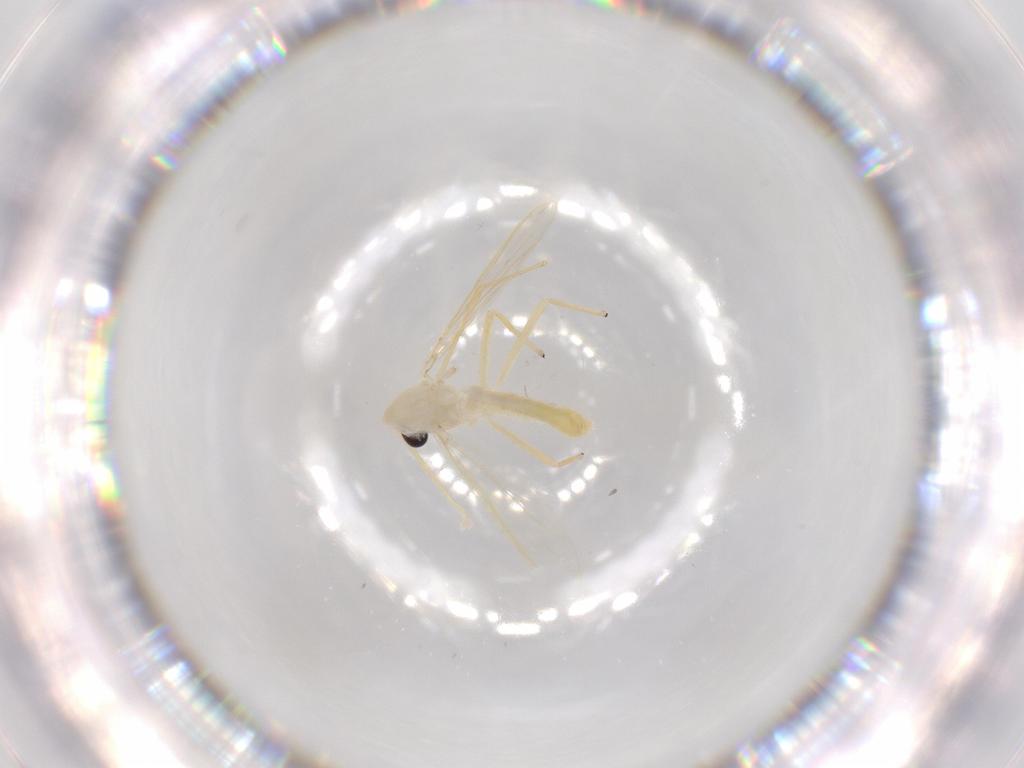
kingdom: Animalia
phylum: Arthropoda
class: Insecta
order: Diptera
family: Chironomidae
